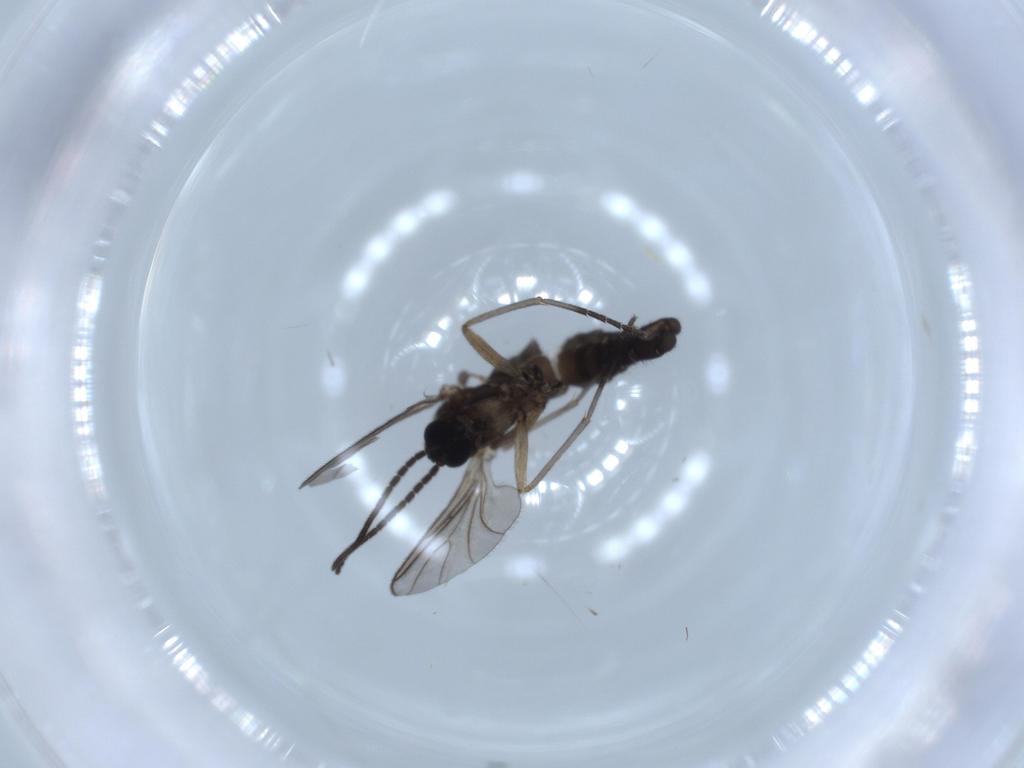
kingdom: Animalia
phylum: Arthropoda
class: Insecta
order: Diptera
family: Sciaridae
